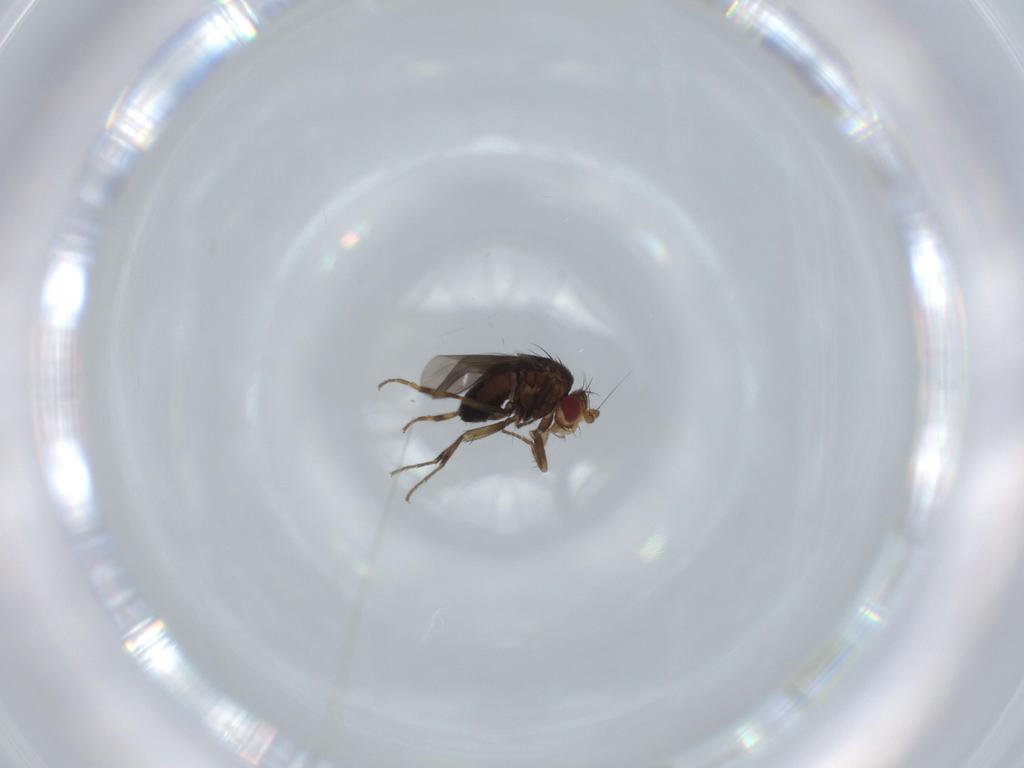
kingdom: Animalia
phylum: Arthropoda
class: Insecta
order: Diptera
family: Sphaeroceridae
